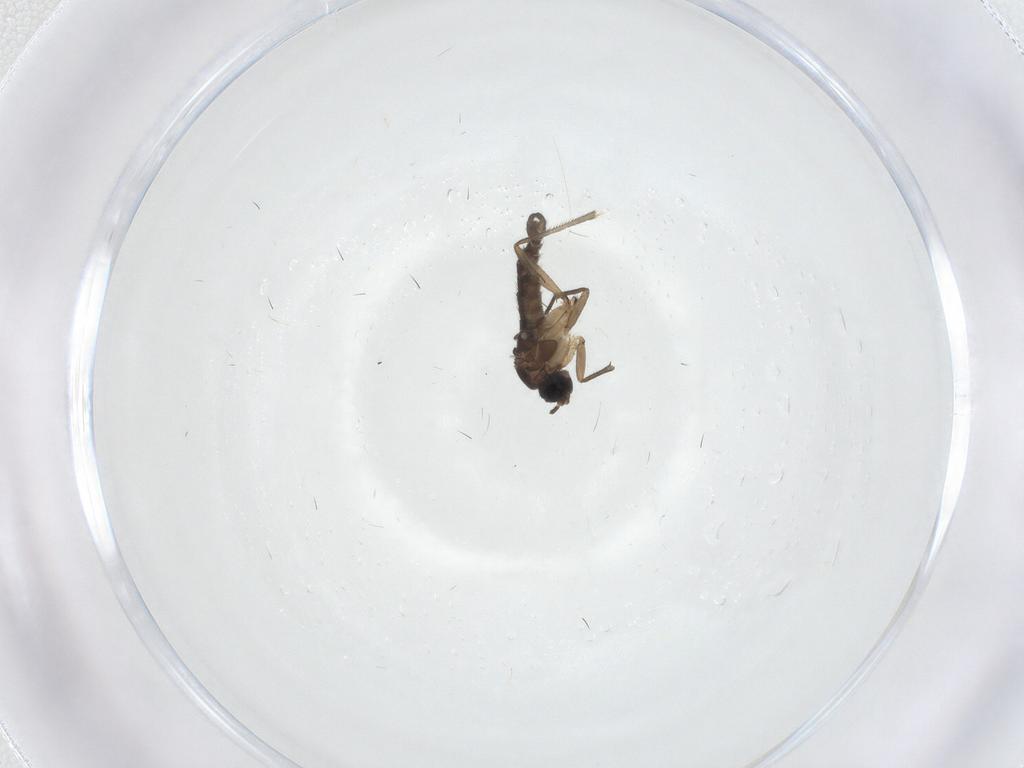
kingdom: Animalia
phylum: Arthropoda
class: Insecta
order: Diptera
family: Sciaridae
